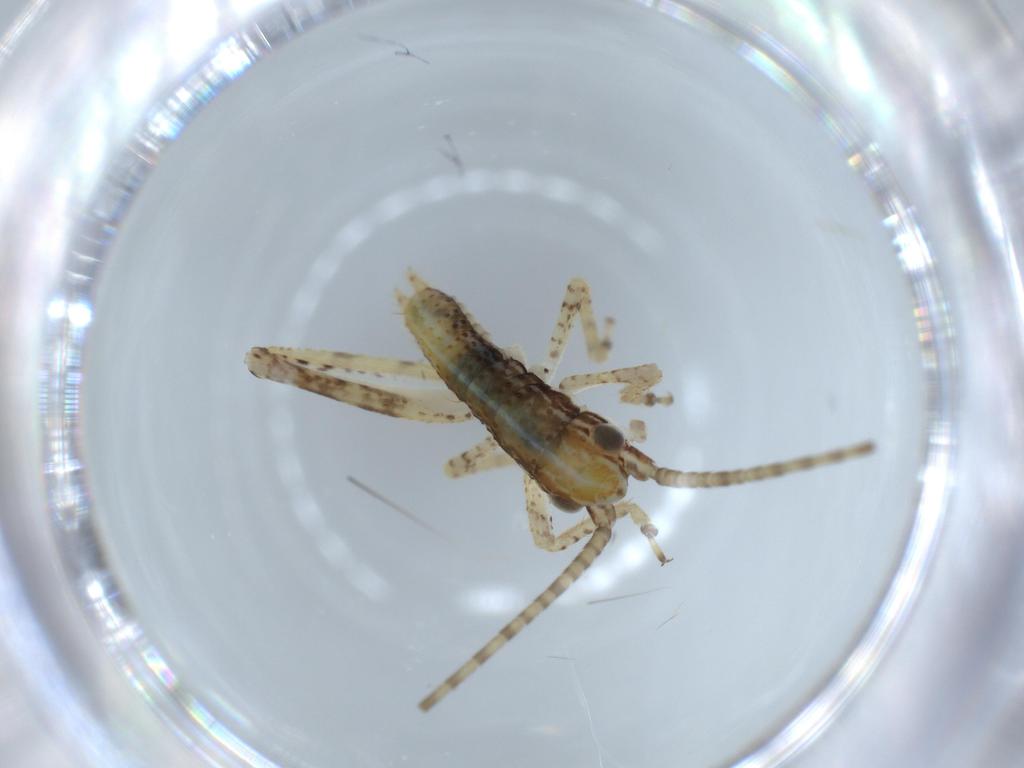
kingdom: Animalia
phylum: Arthropoda
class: Insecta
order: Orthoptera
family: Gryllidae
